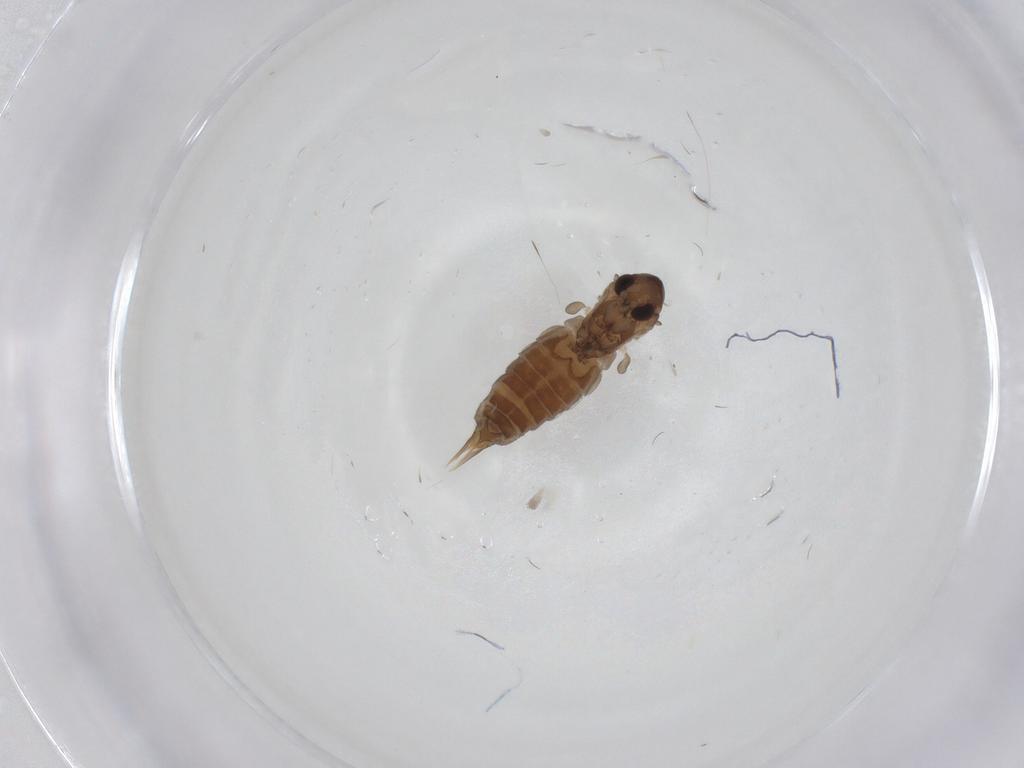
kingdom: Animalia
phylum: Arthropoda
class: Insecta
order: Diptera
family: Psychodidae
